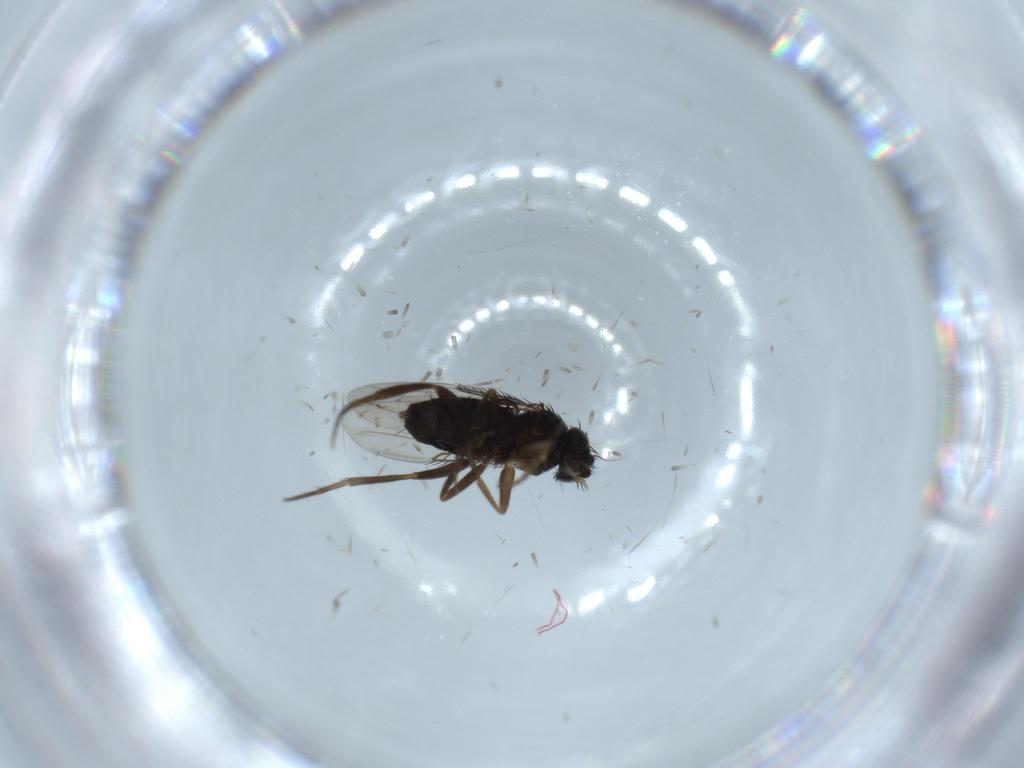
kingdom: Animalia
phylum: Arthropoda
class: Insecta
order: Diptera
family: Phoridae
